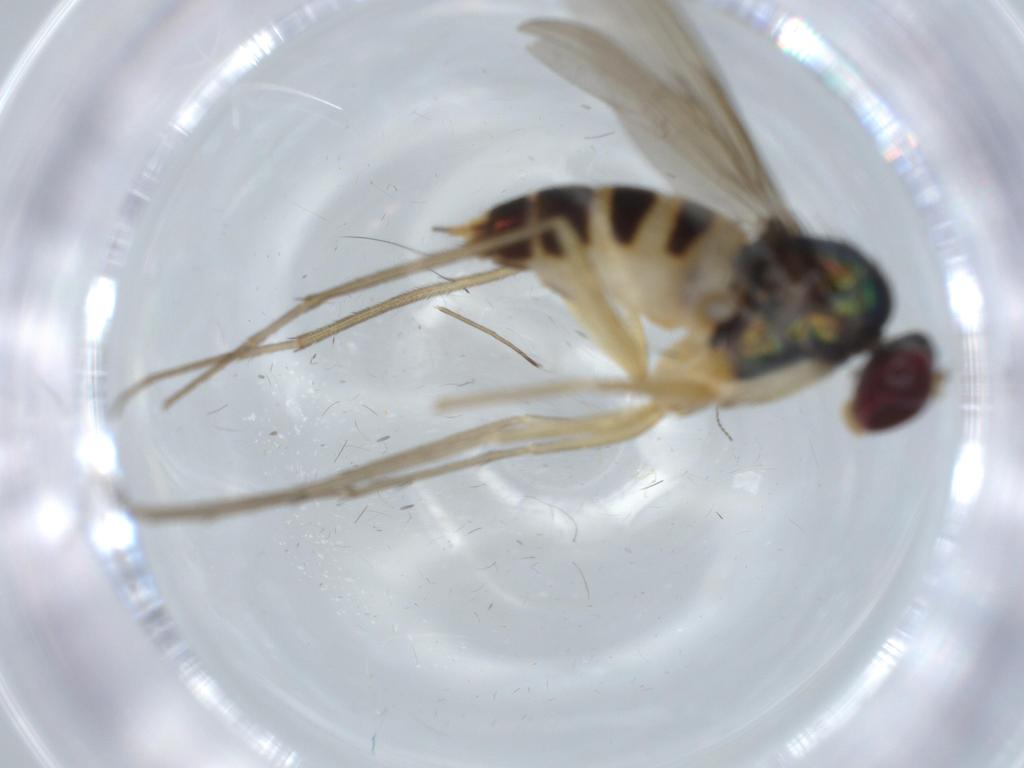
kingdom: Animalia
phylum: Arthropoda
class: Insecta
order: Diptera
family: Dolichopodidae
